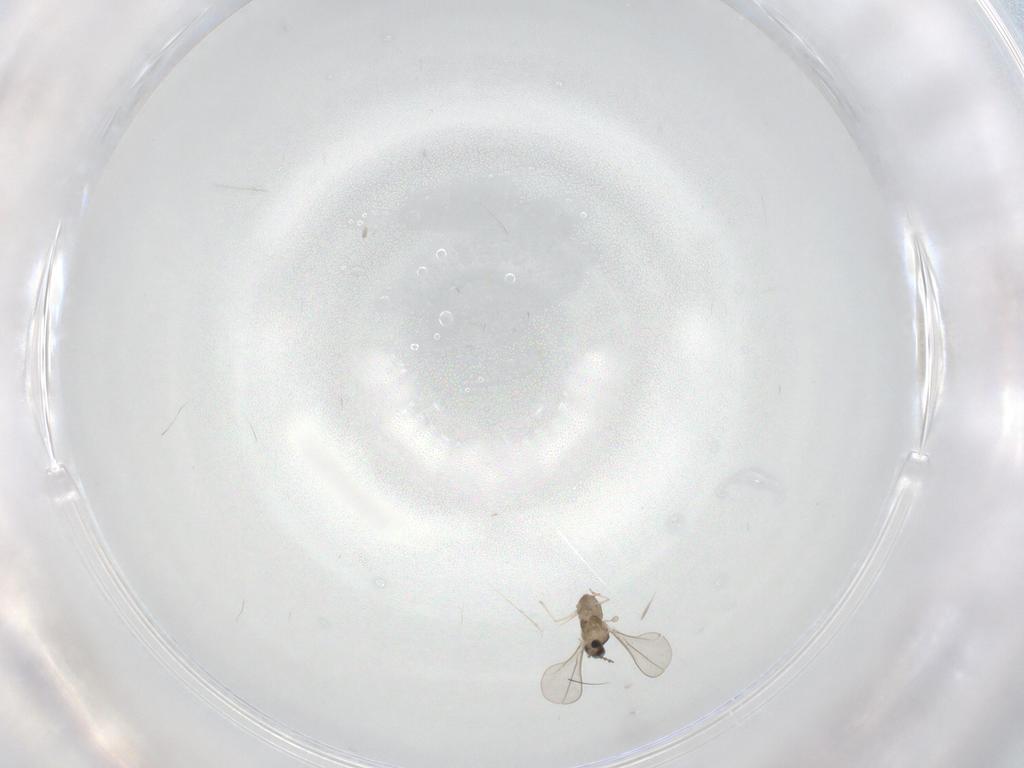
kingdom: Animalia
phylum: Arthropoda
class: Insecta
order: Diptera
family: Cecidomyiidae
